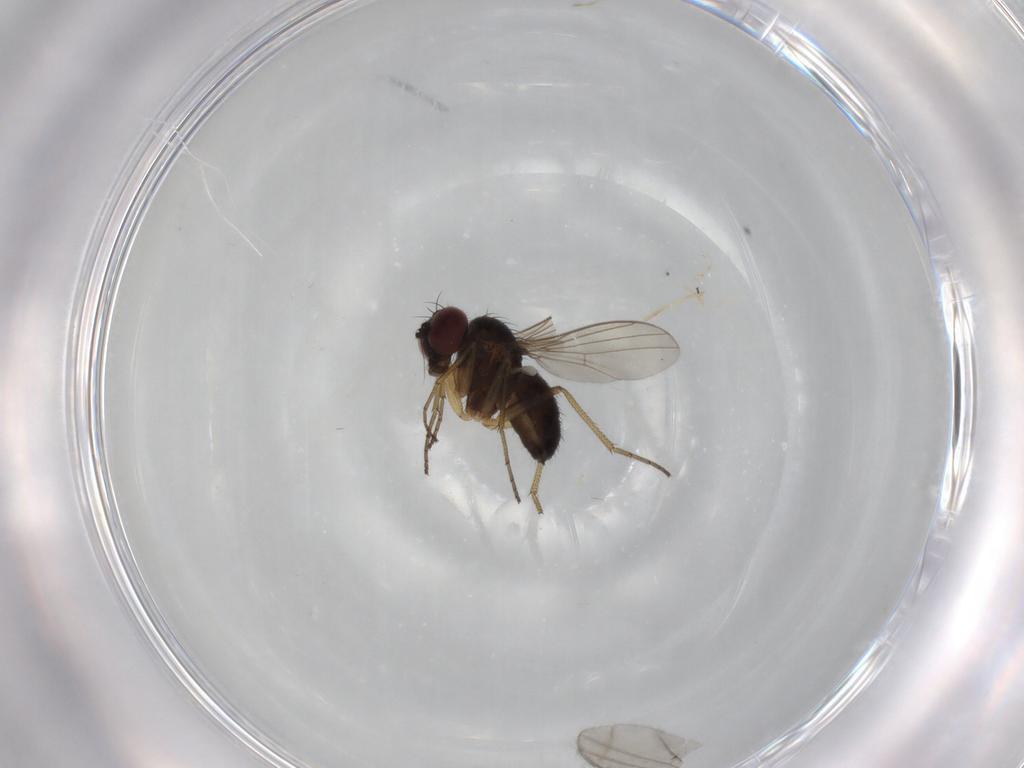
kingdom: Animalia
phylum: Arthropoda
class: Insecta
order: Diptera
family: Dolichopodidae
